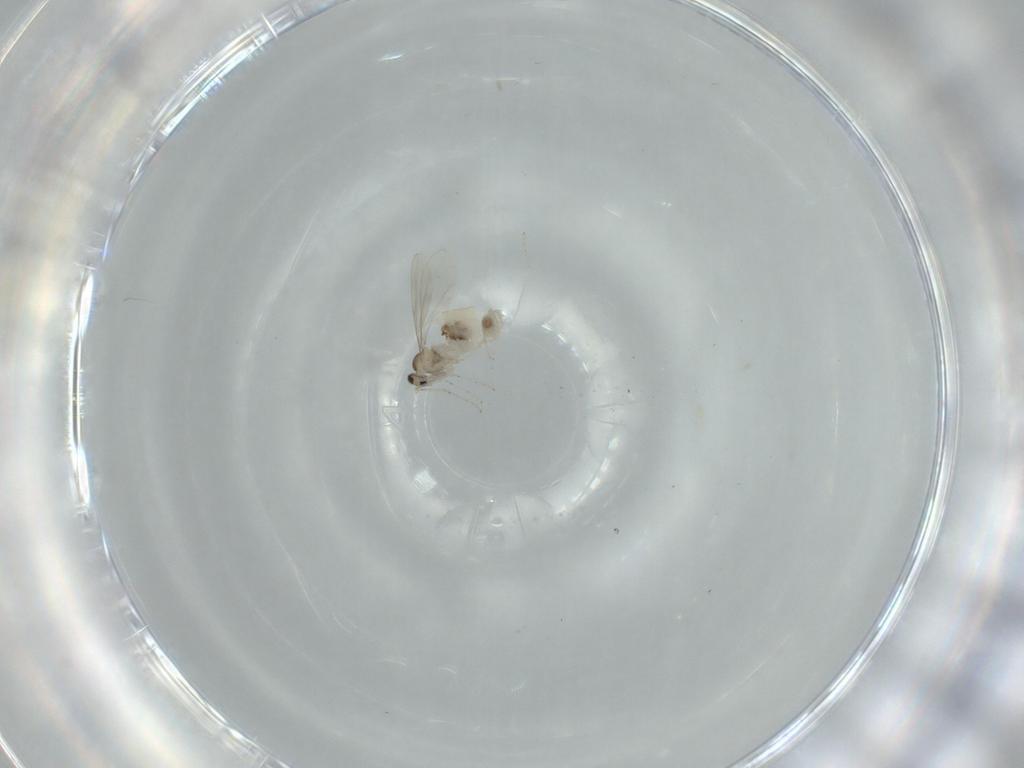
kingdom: Animalia
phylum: Arthropoda
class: Insecta
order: Diptera
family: Cecidomyiidae
